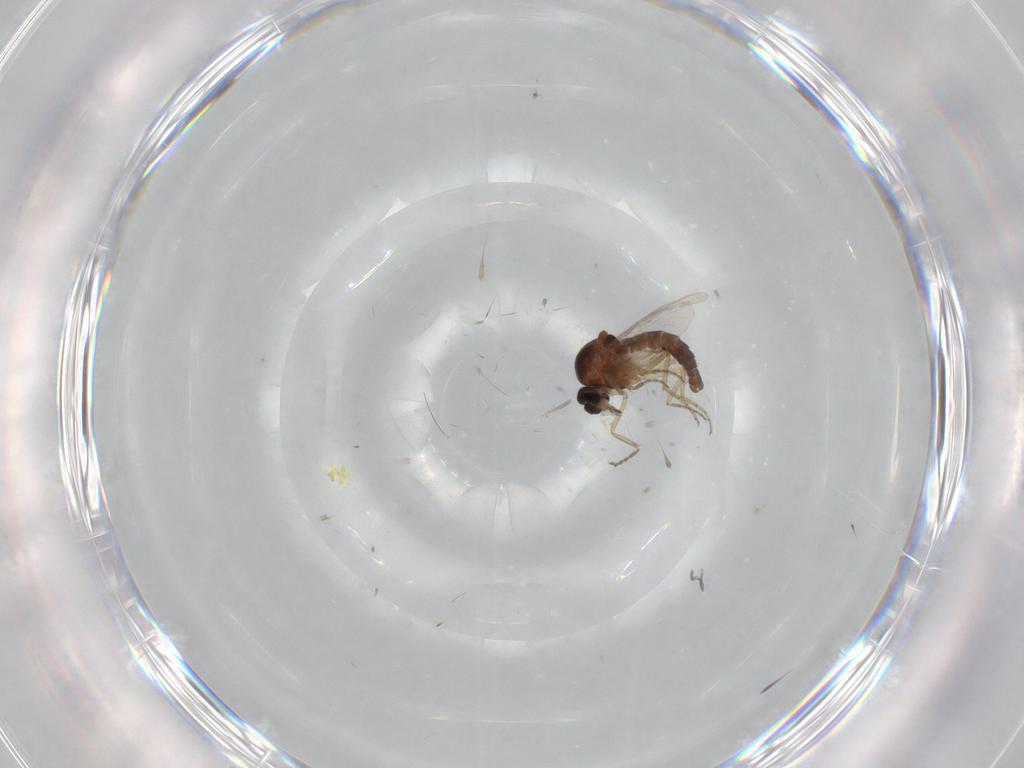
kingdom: Animalia
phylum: Arthropoda
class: Insecta
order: Diptera
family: Ceratopogonidae
